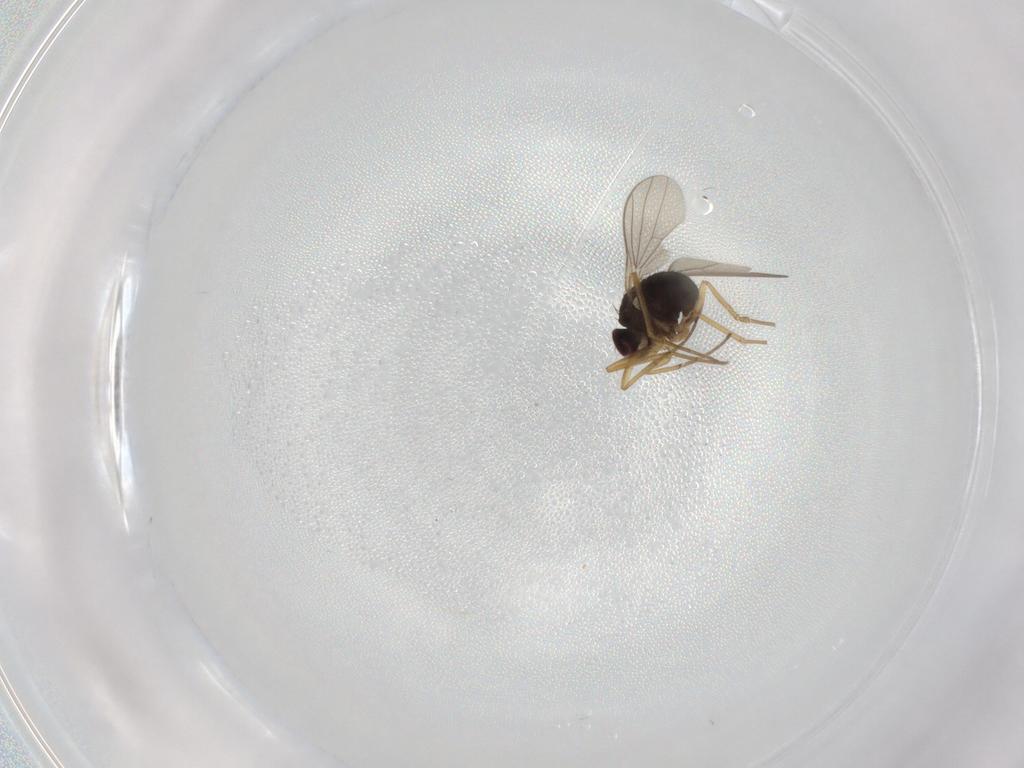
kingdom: Animalia
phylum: Arthropoda
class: Insecta
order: Diptera
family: Dolichopodidae
